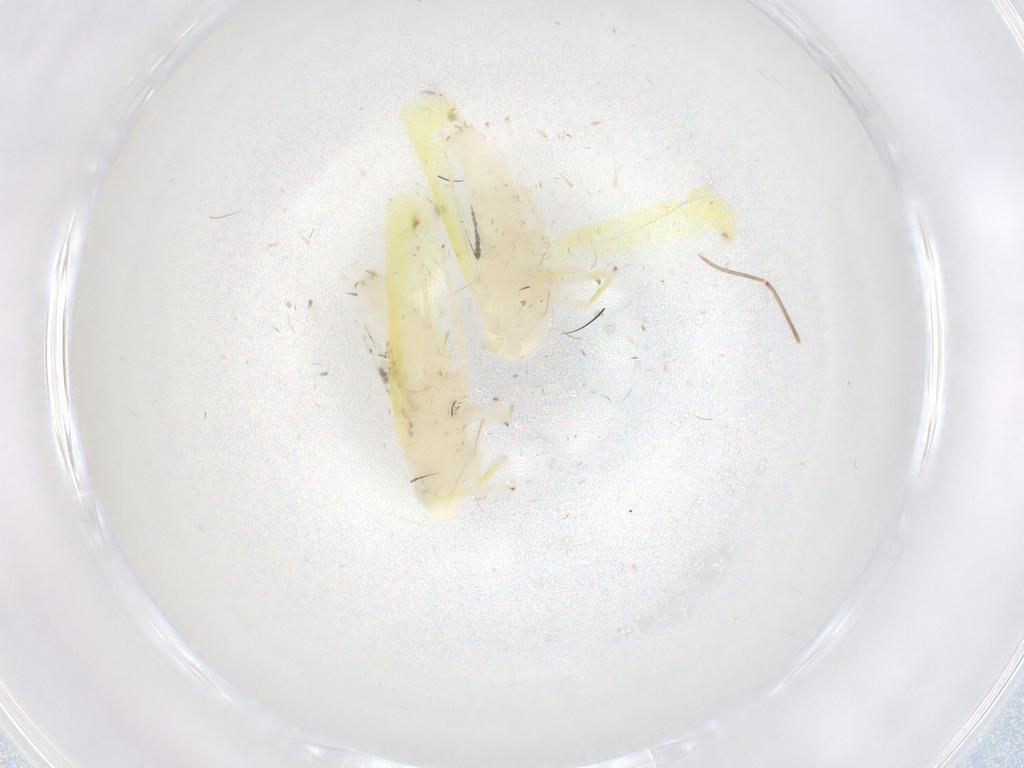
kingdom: Animalia
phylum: Arthropoda
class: Insecta
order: Hemiptera
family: Cicadellidae
